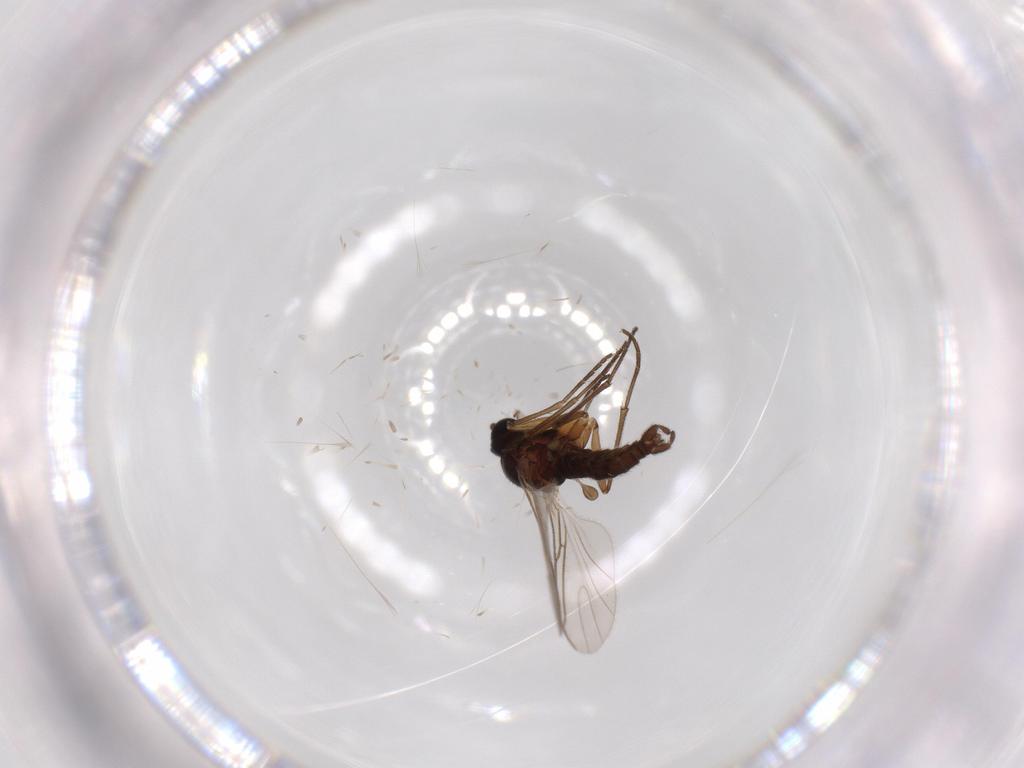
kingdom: Animalia
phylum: Arthropoda
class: Insecta
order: Diptera
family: Sciaridae
